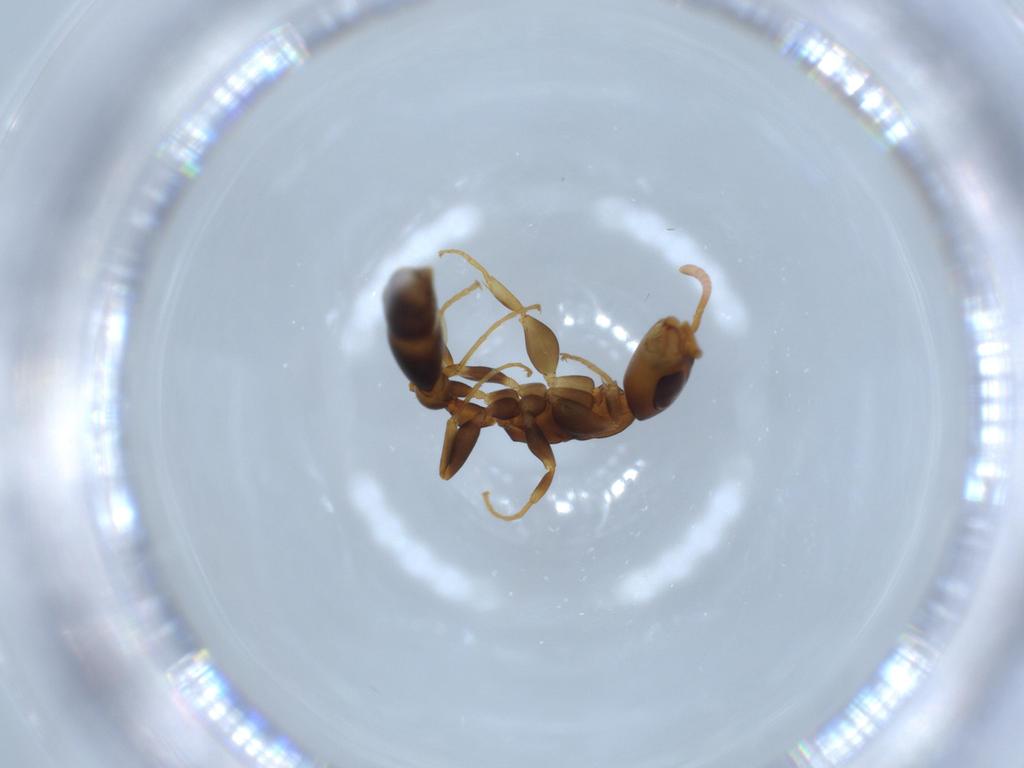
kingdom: Animalia
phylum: Arthropoda
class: Insecta
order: Hymenoptera
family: Formicidae
